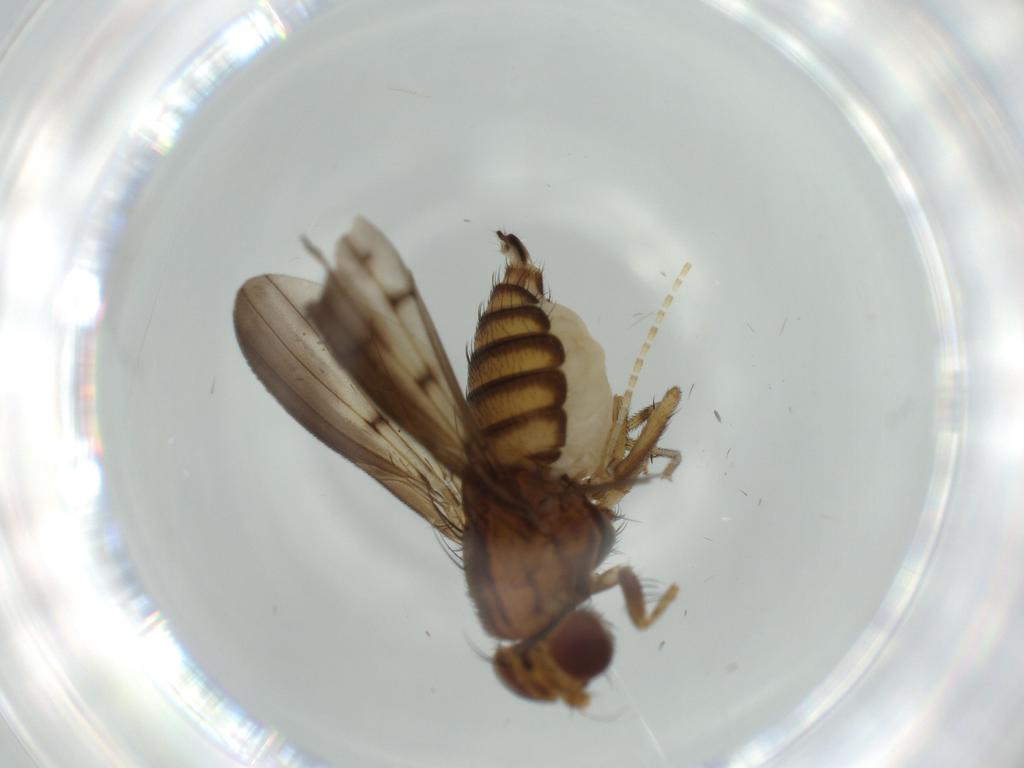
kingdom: Animalia
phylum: Arthropoda
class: Insecta
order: Diptera
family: Lauxaniidae
